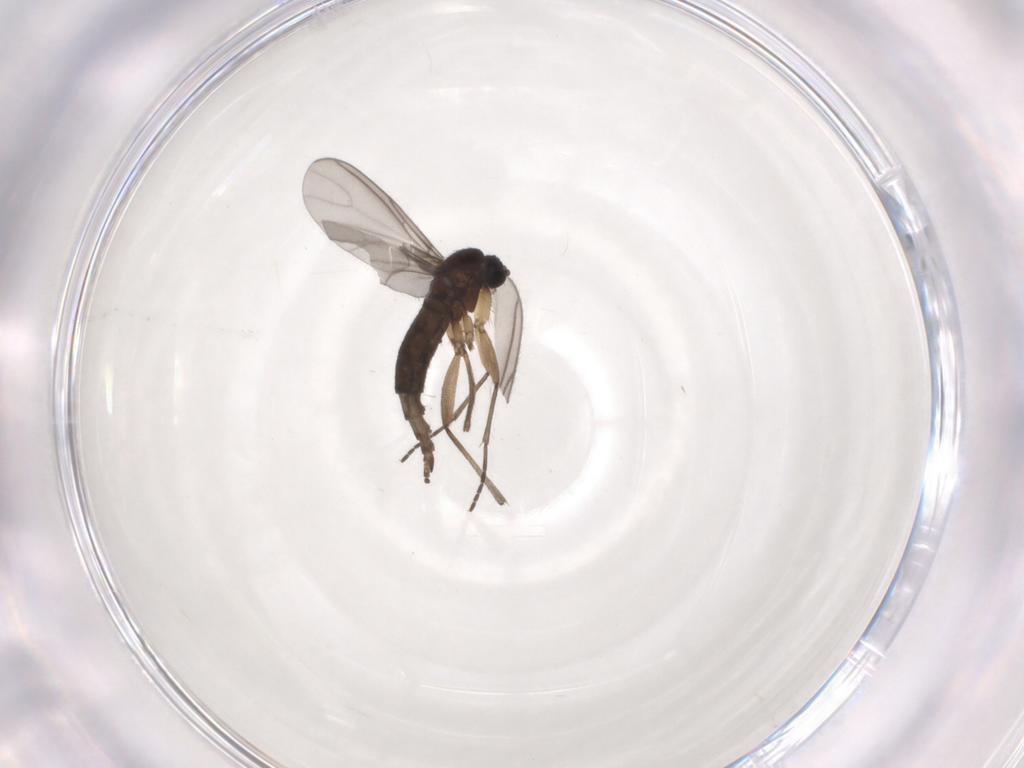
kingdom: Animalia
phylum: Arthropoda
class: Insecta
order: Diptera
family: Sciaridae
